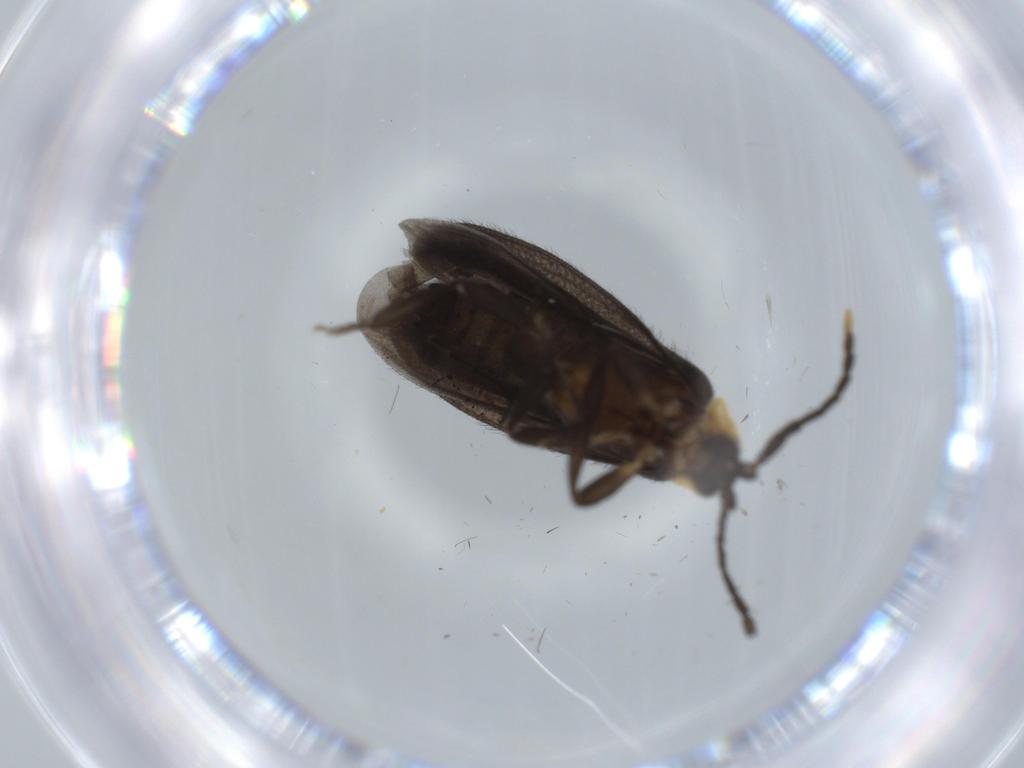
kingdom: Animalia
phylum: Arthropoda
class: Insecta
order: Coleoptera
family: Lycidae
